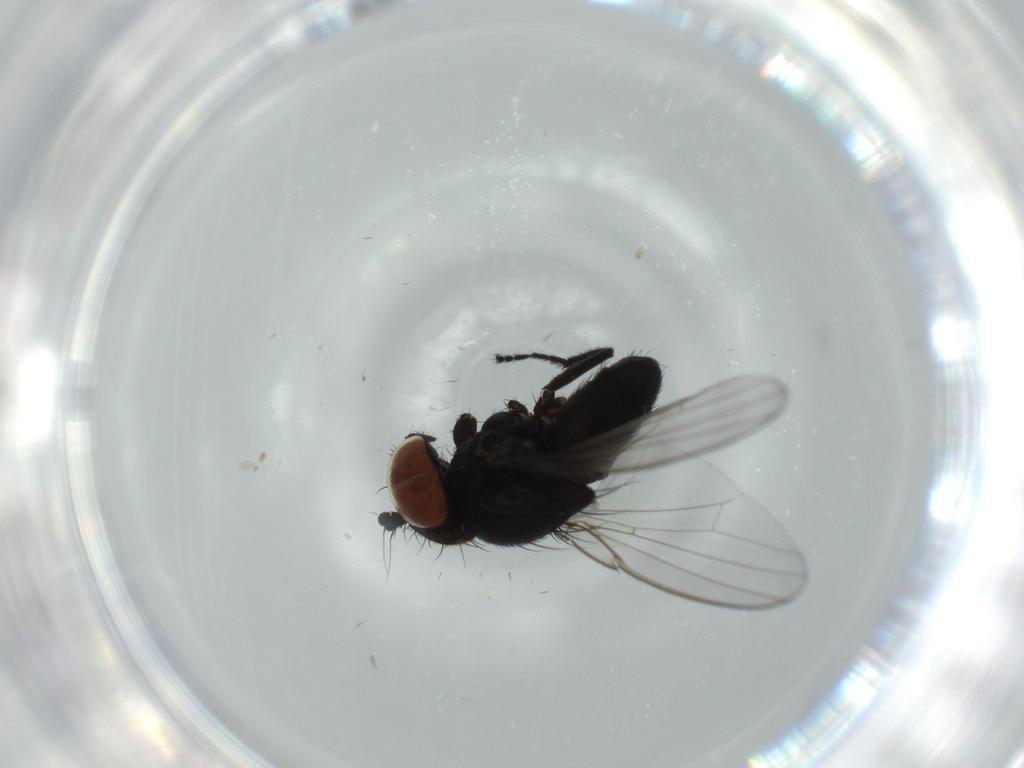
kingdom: Animalia
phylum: Arthropoda
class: Insecta
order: Diptera
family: Milichiidae
